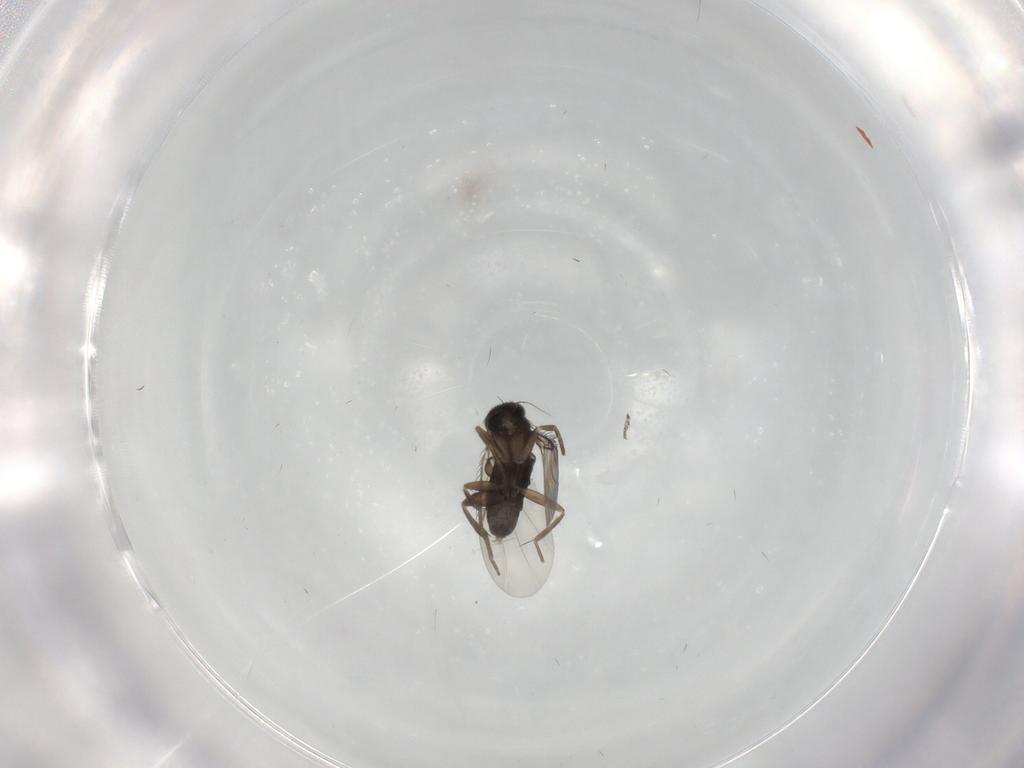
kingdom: Animalia
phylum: Arthropoda
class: Insecta
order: Diptera
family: Phoridae
